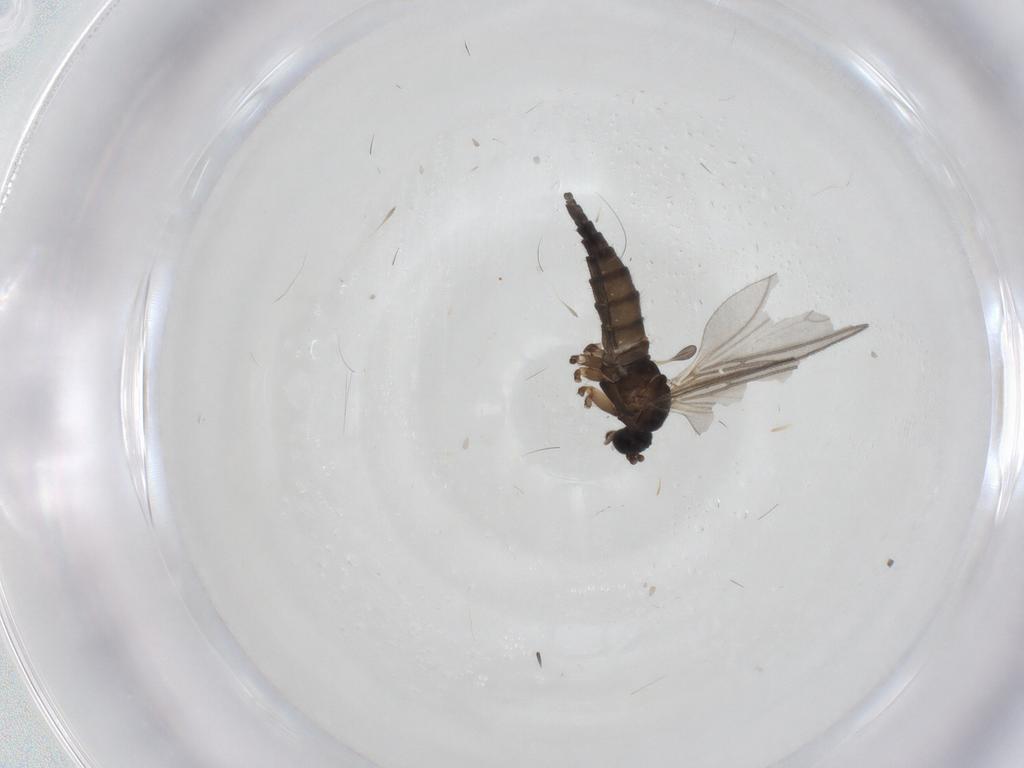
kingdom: Animalia
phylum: Arthropoda
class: Insecta
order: Diptera
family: Sciaridae
